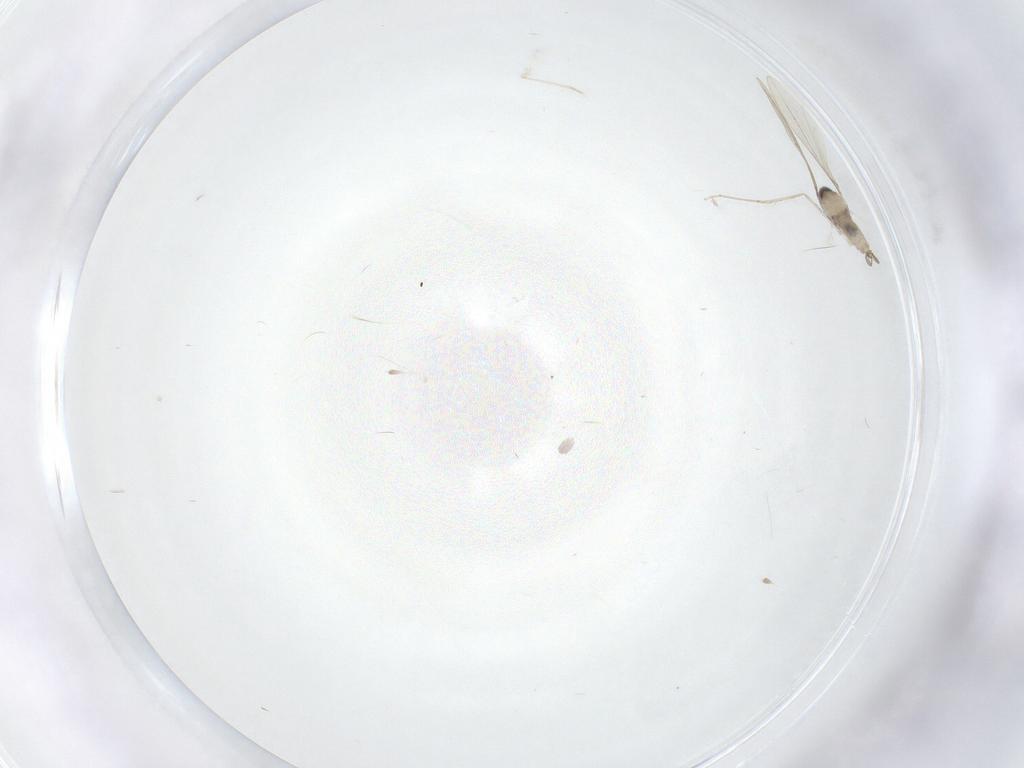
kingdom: Animalia
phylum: Arthropoda
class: Insecta
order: Diptera
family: Cecidomyiidae
